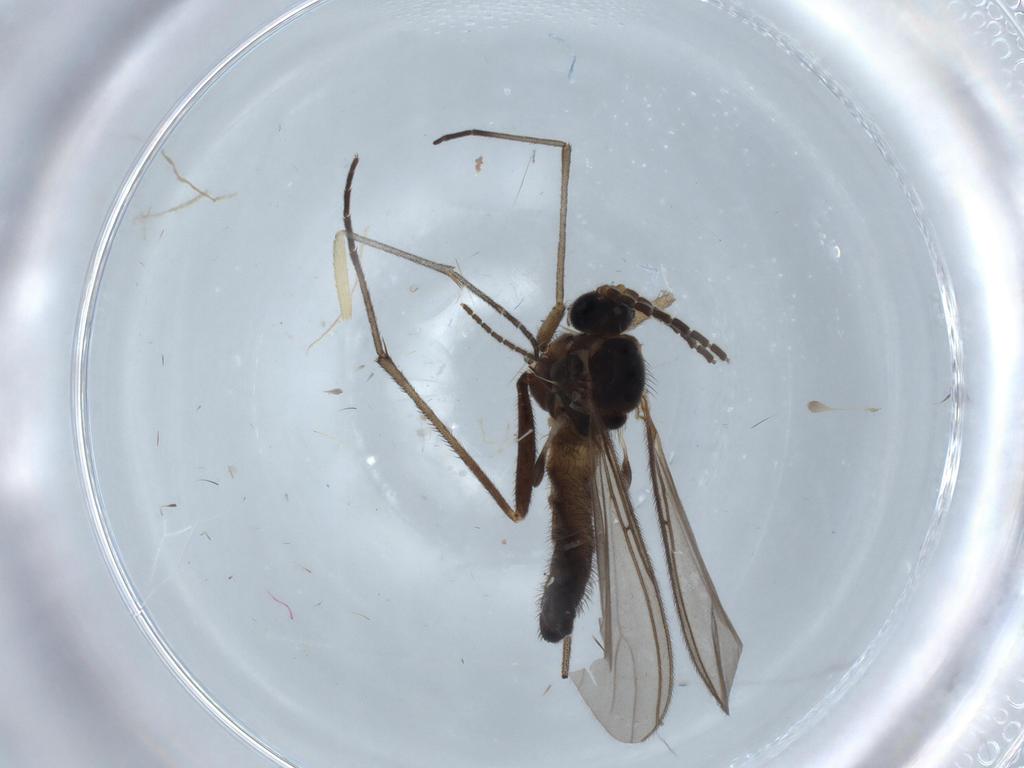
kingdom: Animalia
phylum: Arthropoda
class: Insecta
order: Diptera
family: Sciaridae
